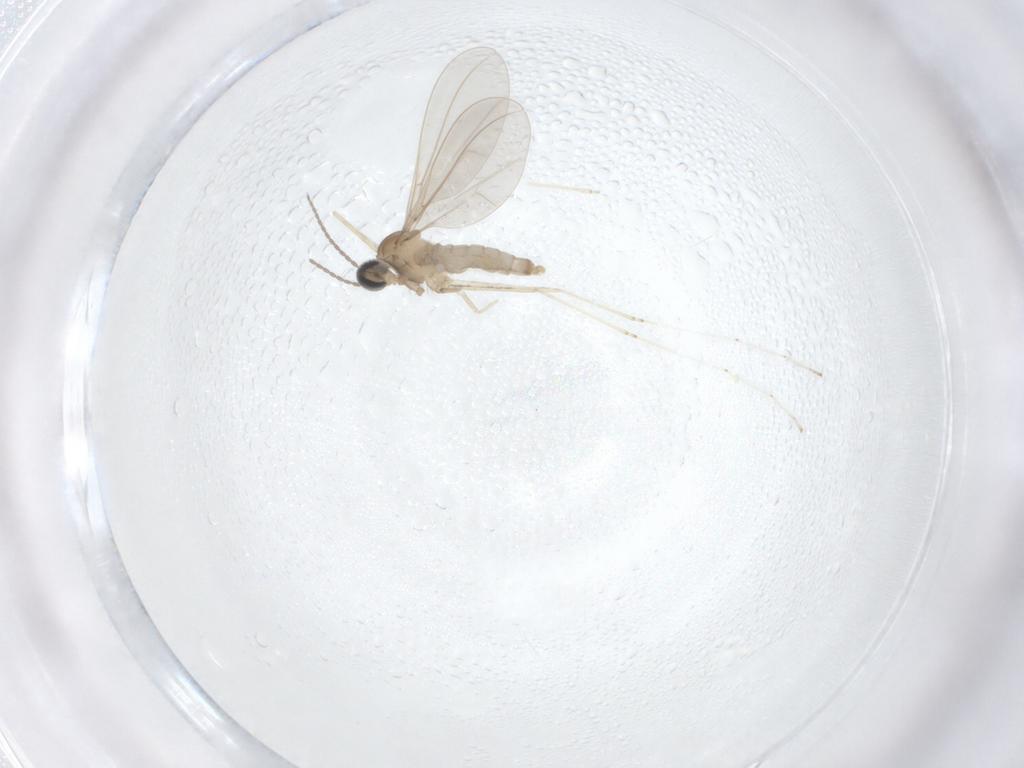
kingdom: Animalia
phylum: Arthropoda
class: Insecta
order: Diptera
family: Cecidomyiidae
